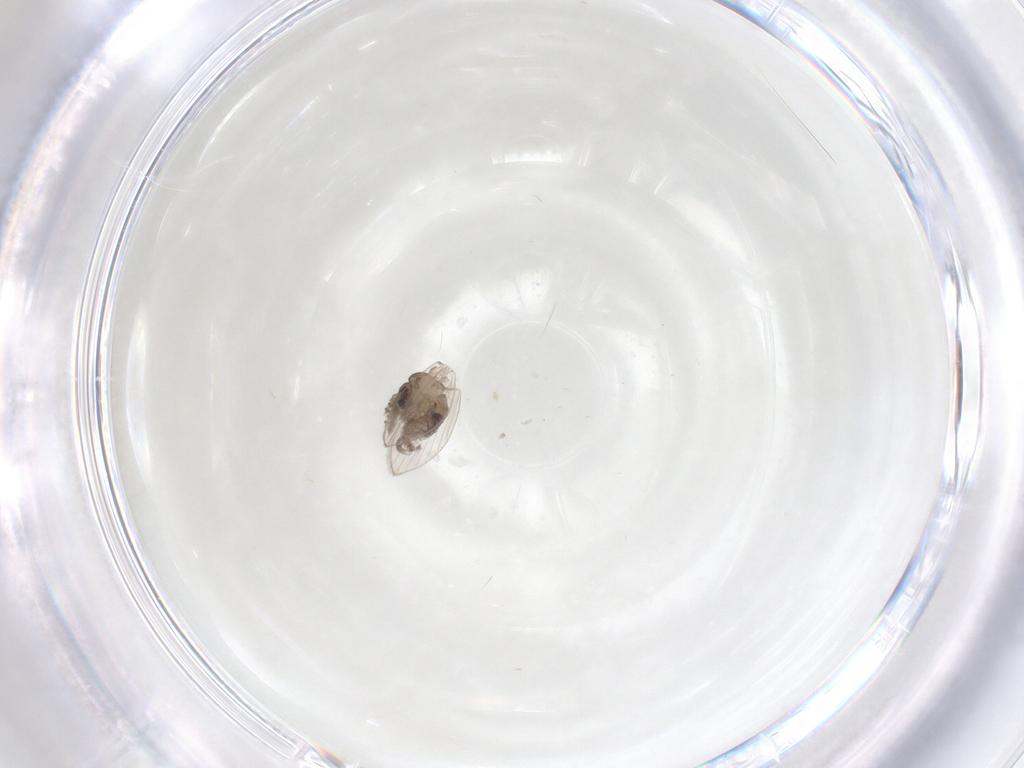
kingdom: Animalia
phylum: Arthropoda
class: Insecta
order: Diptera
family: Psychodidae
